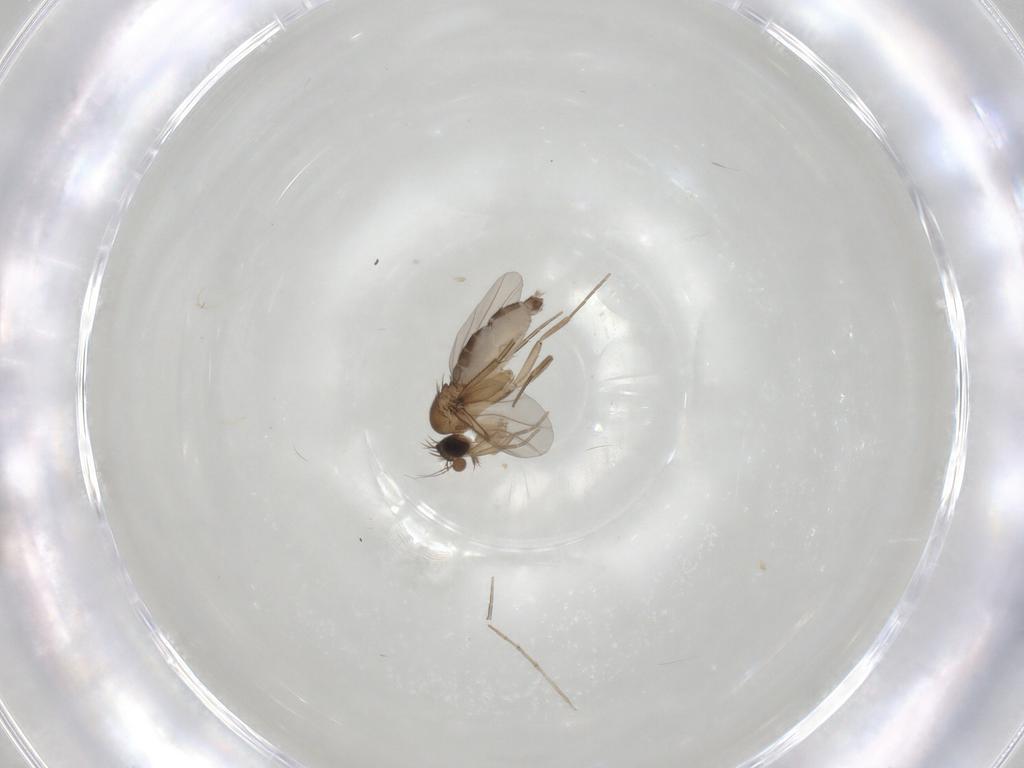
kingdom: Animalia
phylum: Arthropoda
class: Insecta
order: Diptera
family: Phoridae
